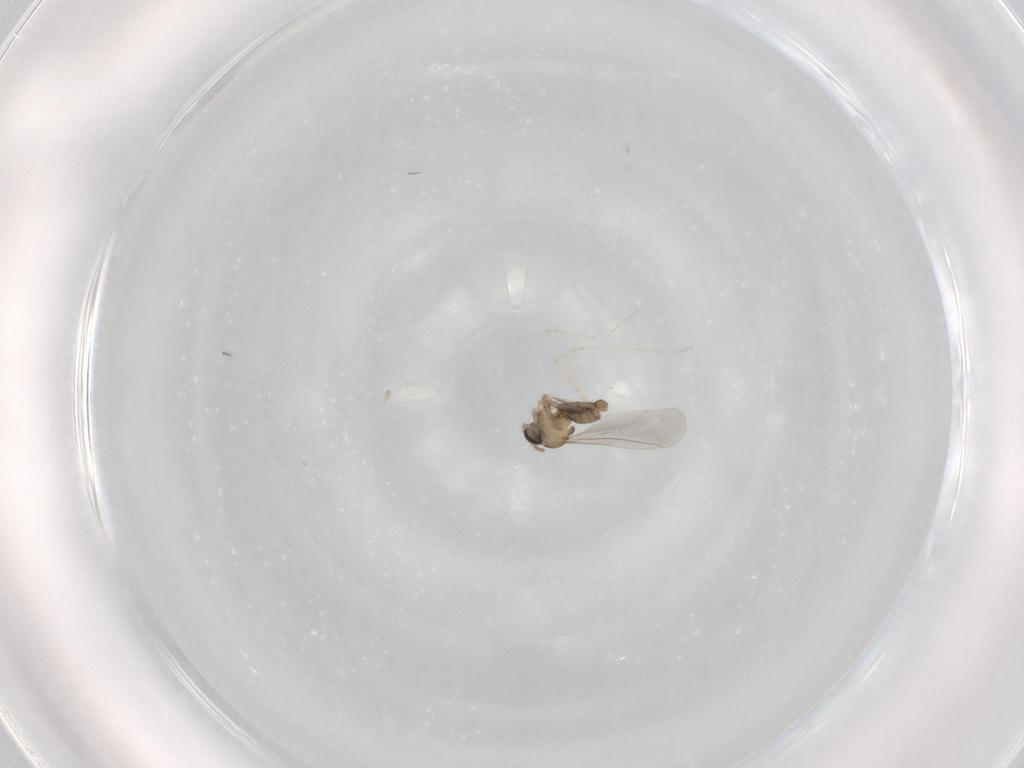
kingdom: Animalia
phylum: Arthropoda
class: Insecta
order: Diptera
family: Cecidomyiidae
